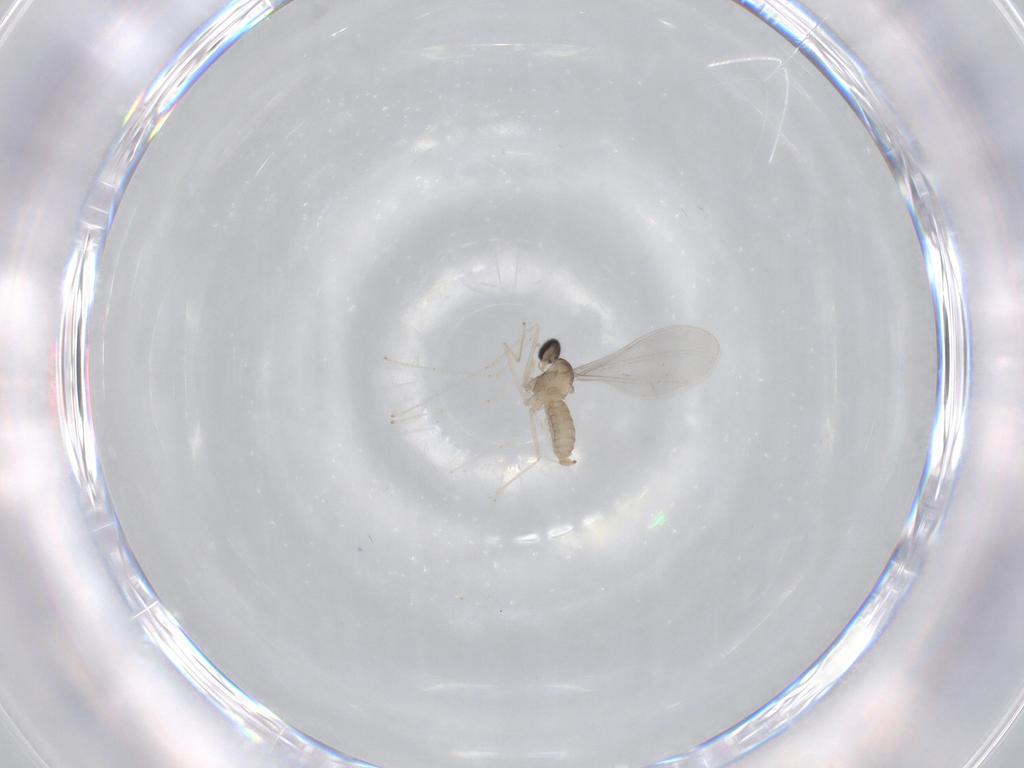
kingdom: Animalia
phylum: Arthropoda
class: Insecta
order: Diptera
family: Cecidomyiidae
